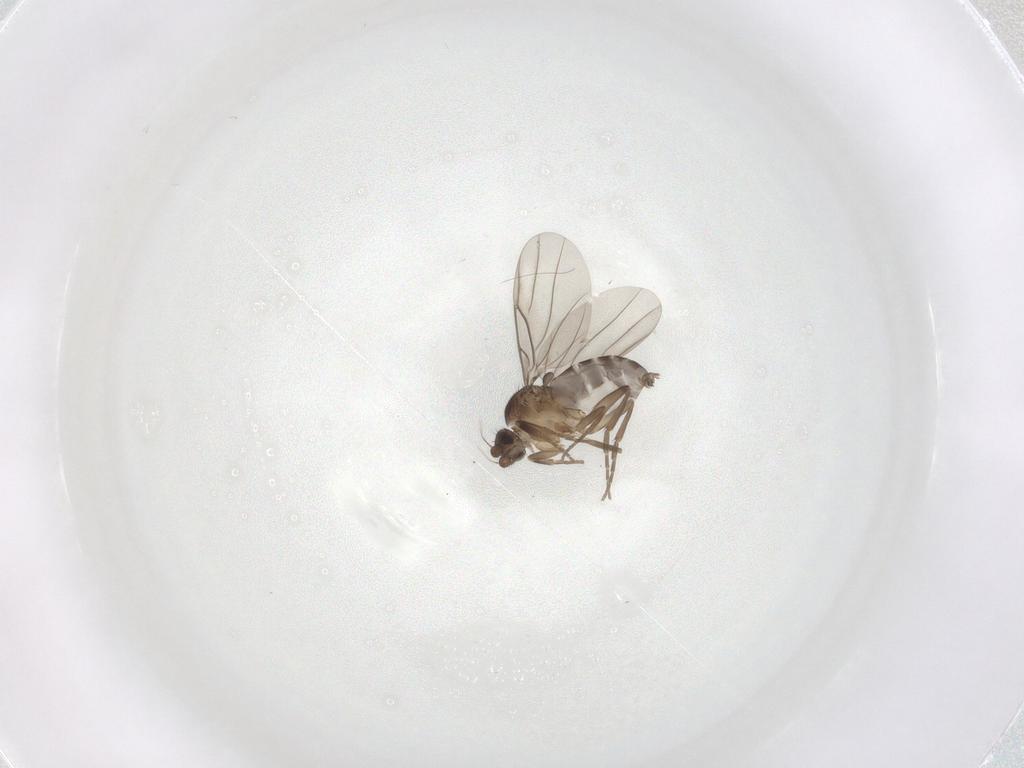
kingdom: Animalia
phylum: Arthropoda
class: Insecta
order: Diptera
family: Phoridae
